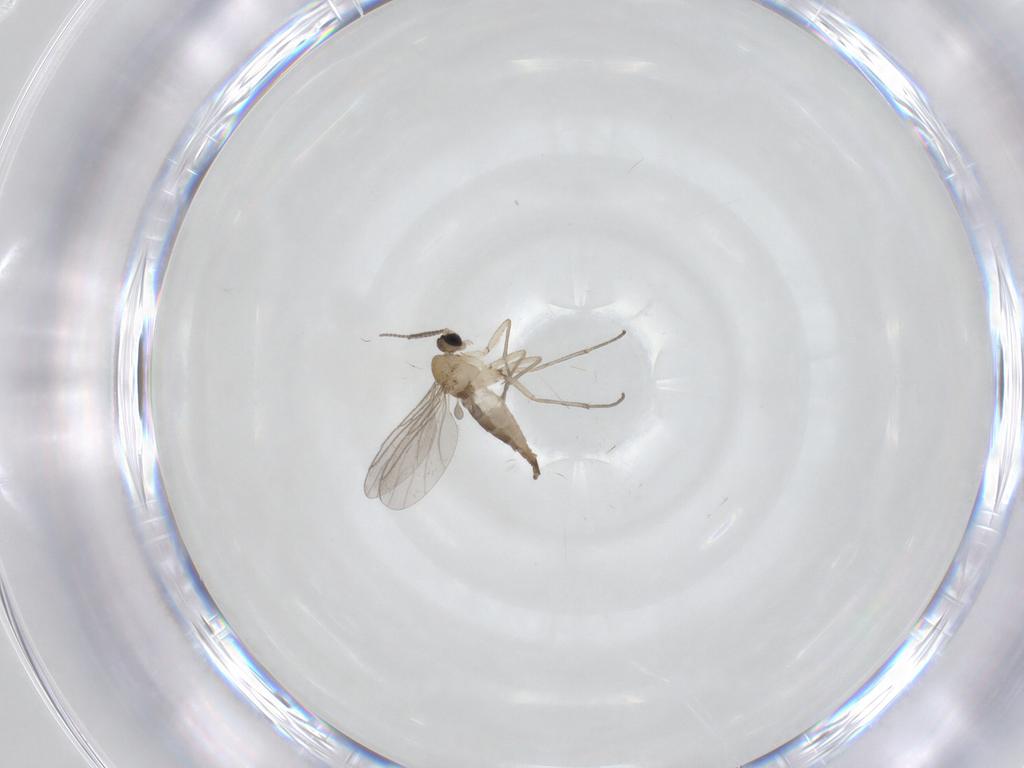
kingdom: Animalia
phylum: Arthropoda
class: Insecta
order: Diptera
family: Sciaridae
